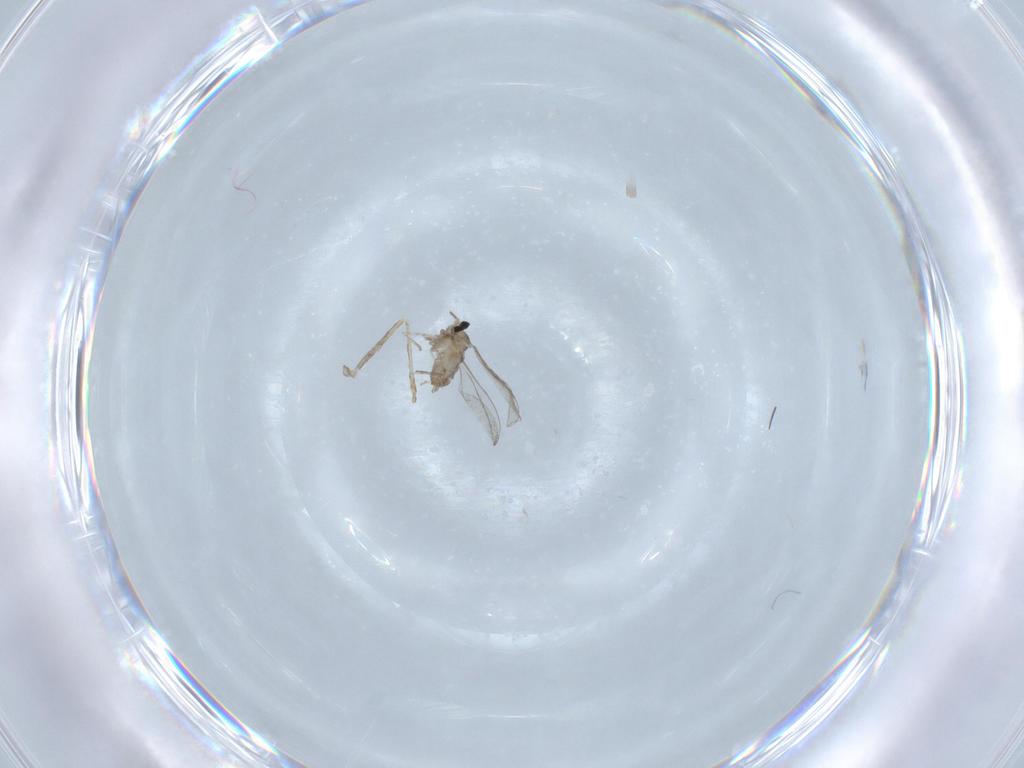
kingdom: Animalia
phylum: Arthropoda
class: Insecta
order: Diptera
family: Cecidomyiidae
